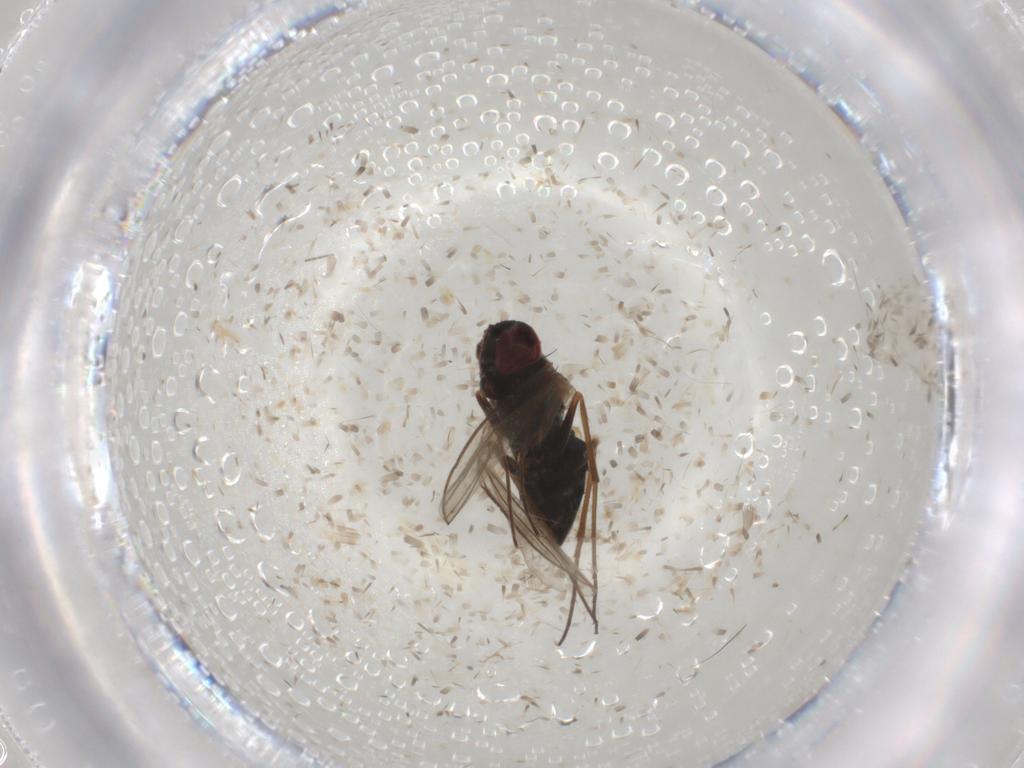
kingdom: Animalia
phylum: Arthropoda
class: Insecta
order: Diptera
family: Dolichopodidae
